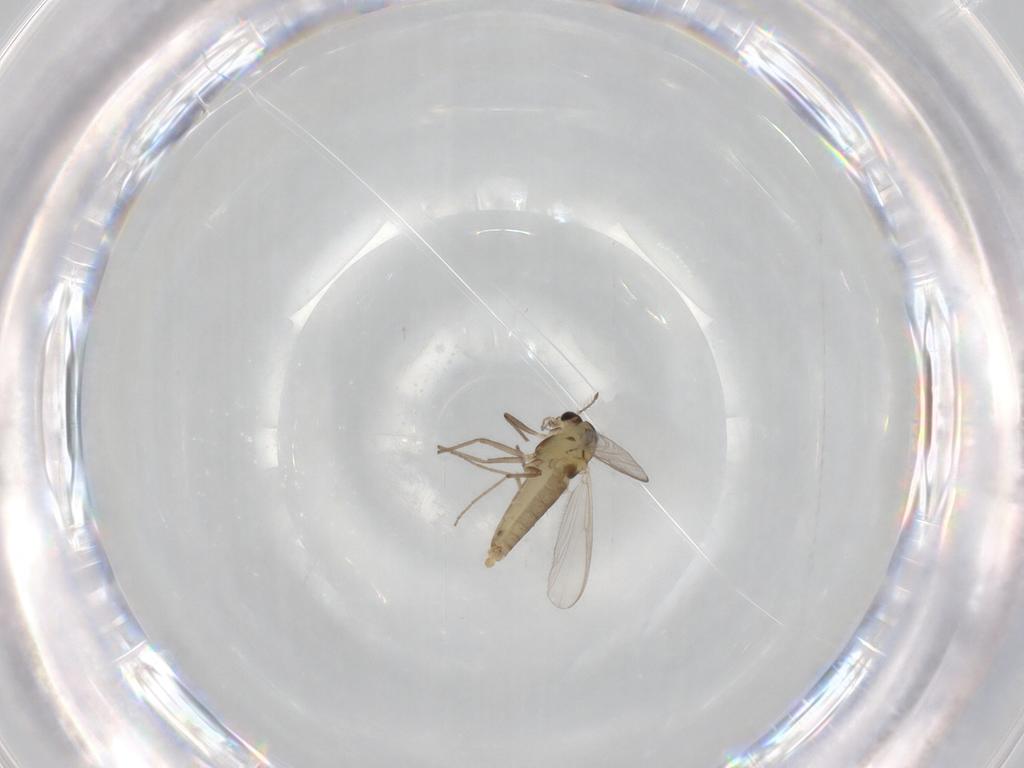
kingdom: Animalia
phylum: Arthropoda
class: Insecta
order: Diptera
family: Chironomidae
